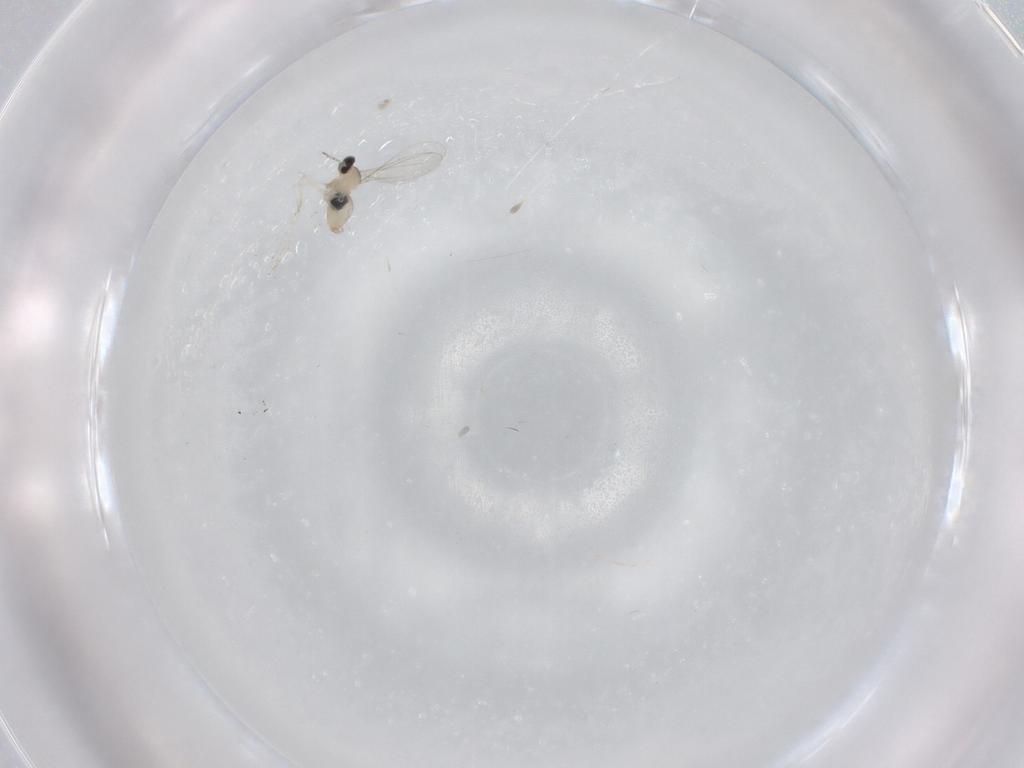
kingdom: Animalia
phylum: Arthropoda
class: Insecta
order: Diptera
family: Cecidomyiidae
